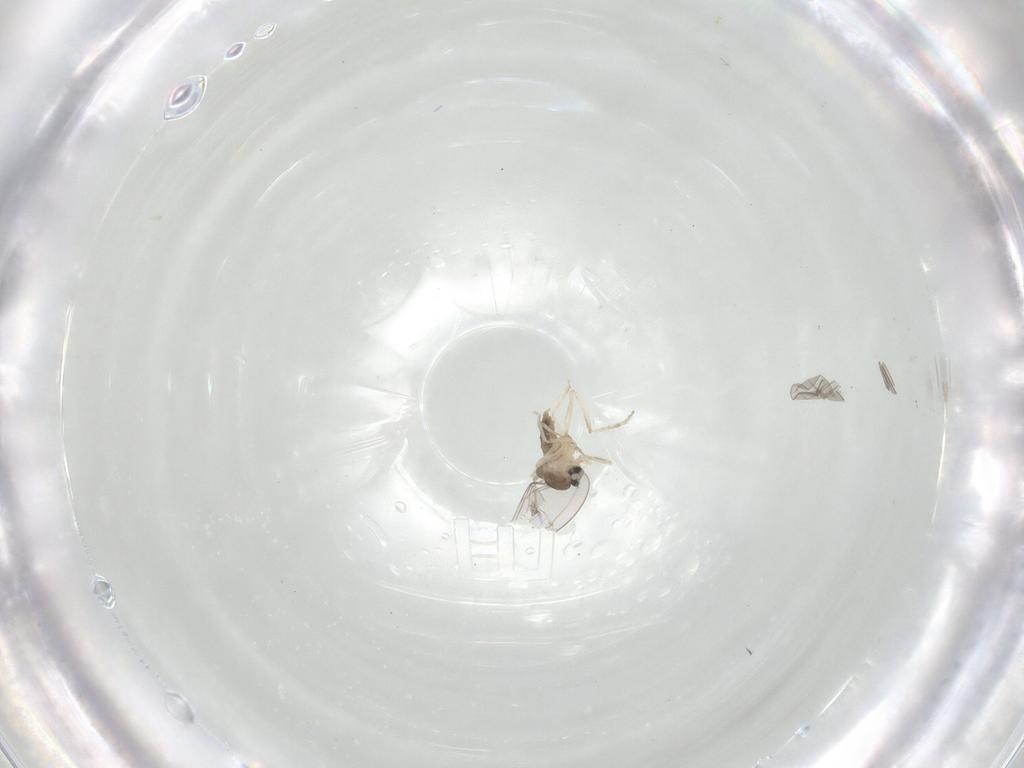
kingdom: Animalia
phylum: Arthropoda
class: Insecta
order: Diptera
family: Cecidomyiidae
